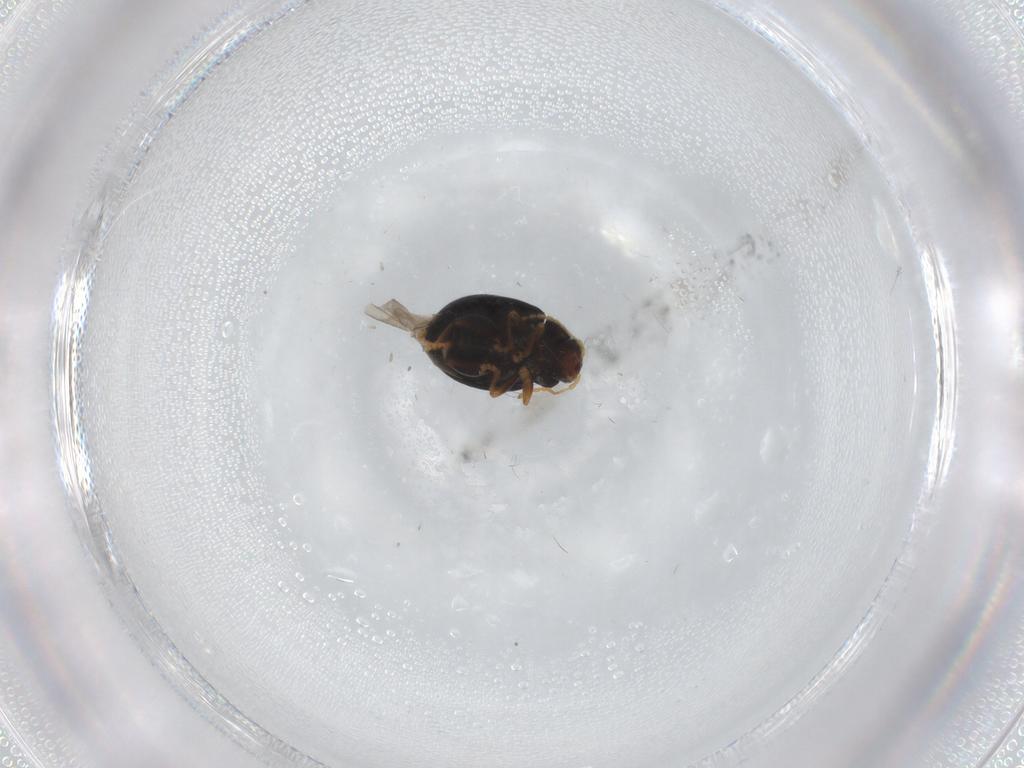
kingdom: Animalia
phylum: Arthropoda
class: Insecta
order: Coleoptera
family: Chrysomelidae
